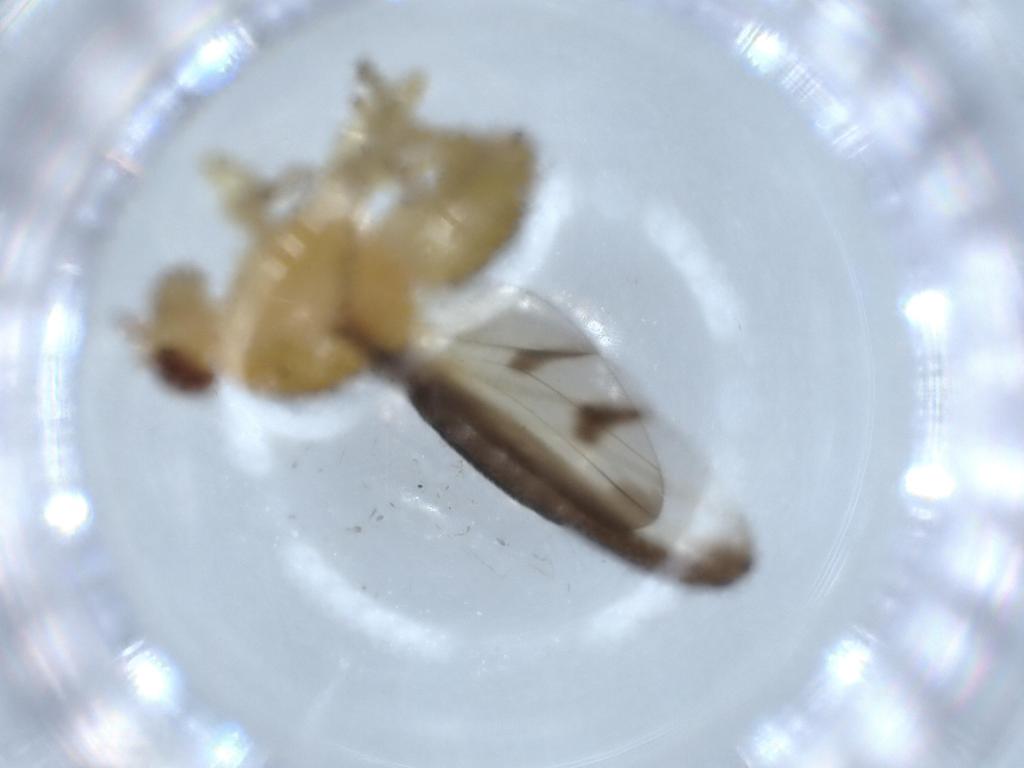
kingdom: Animalia
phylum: Arthropoda
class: Insecta
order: Diptera
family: Lauxaniidae
